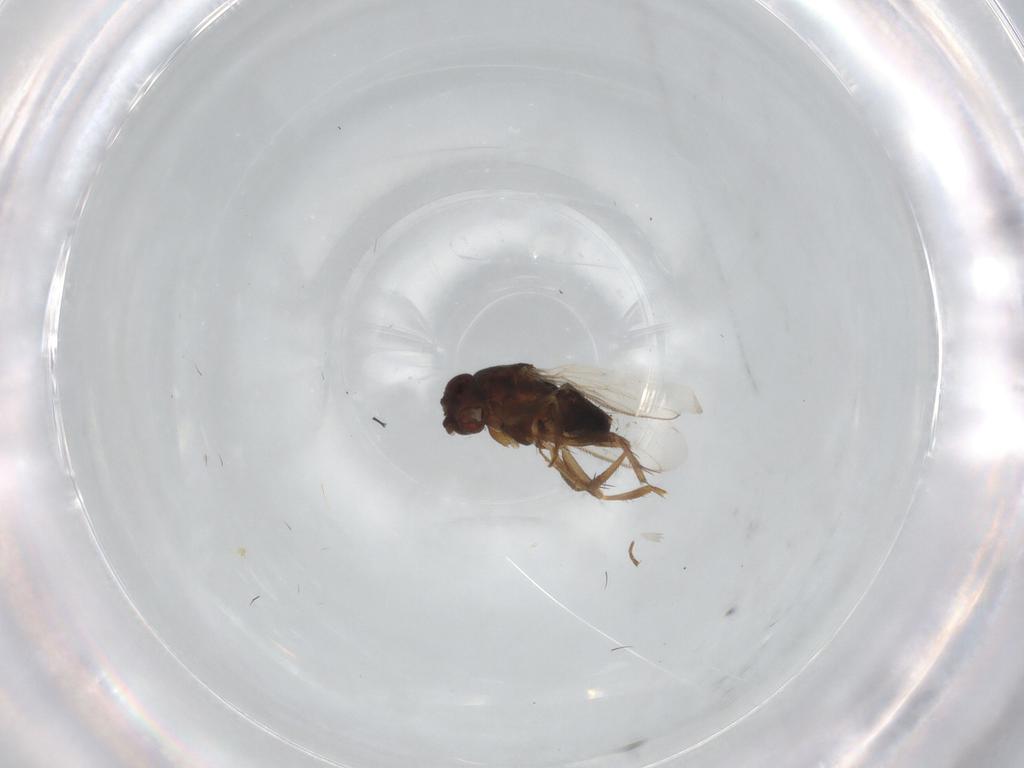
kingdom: Animalia
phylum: Arthropoda
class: Insecta
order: Diptera
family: Sphaeroceridae
